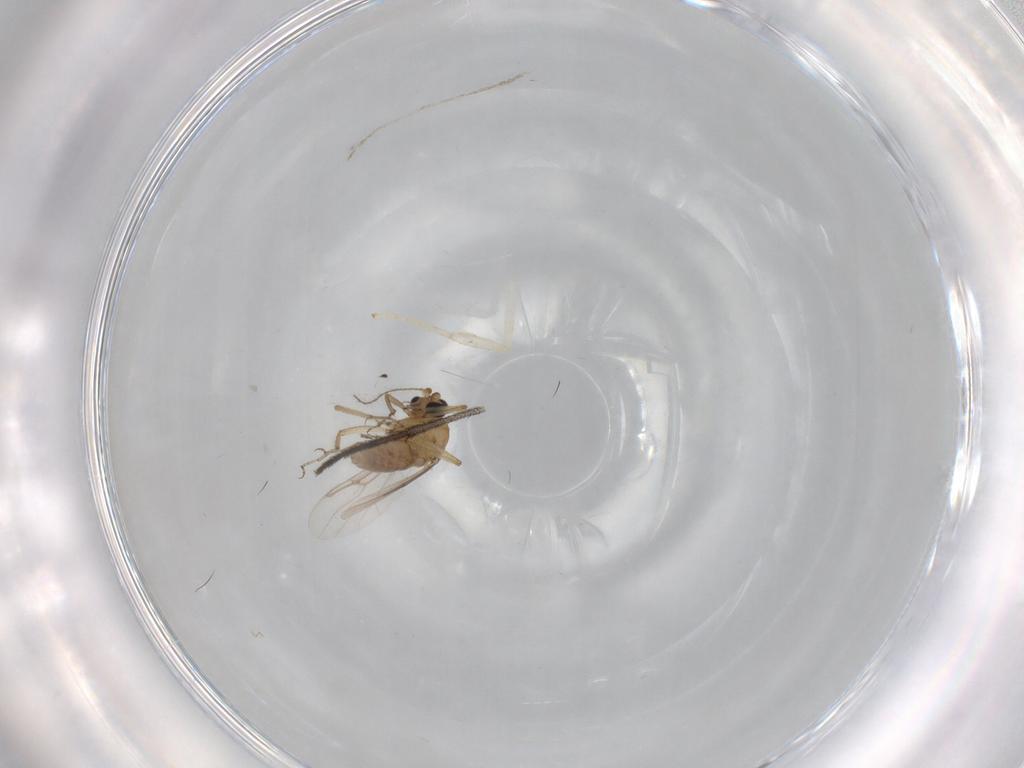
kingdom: Animalia
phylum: Arthropoda
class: Insecta
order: Diptera
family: Sciaridae
